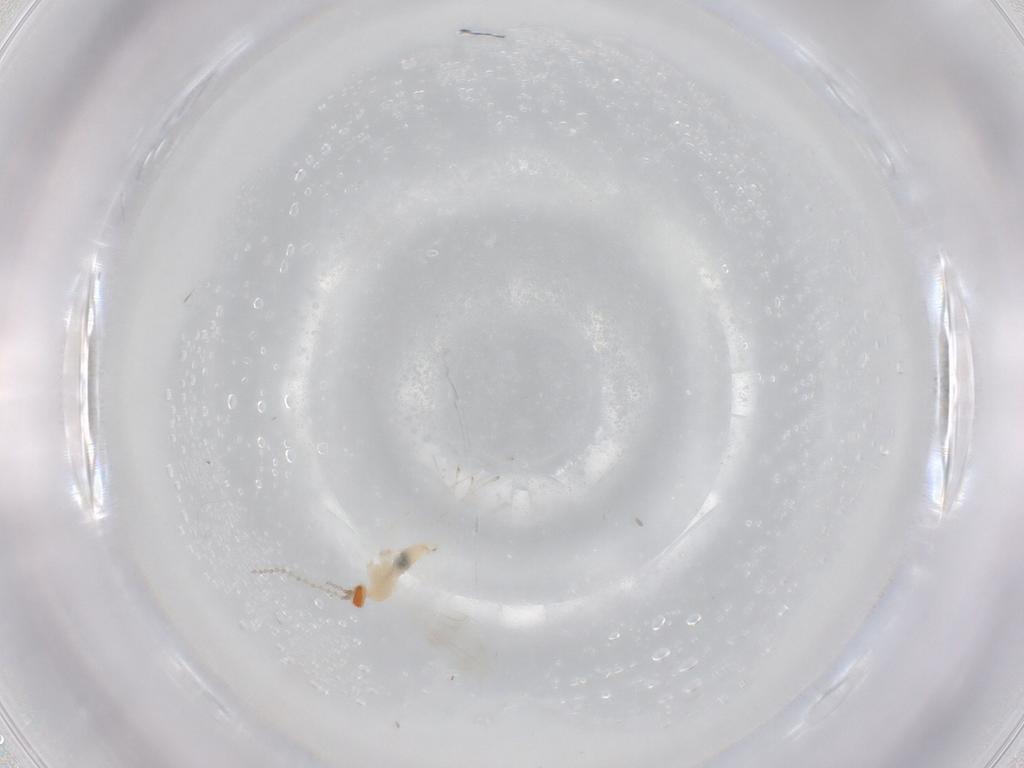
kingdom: Animalia
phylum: Arthropoda
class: Insecta
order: Diptera
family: Cecidomyiidae
